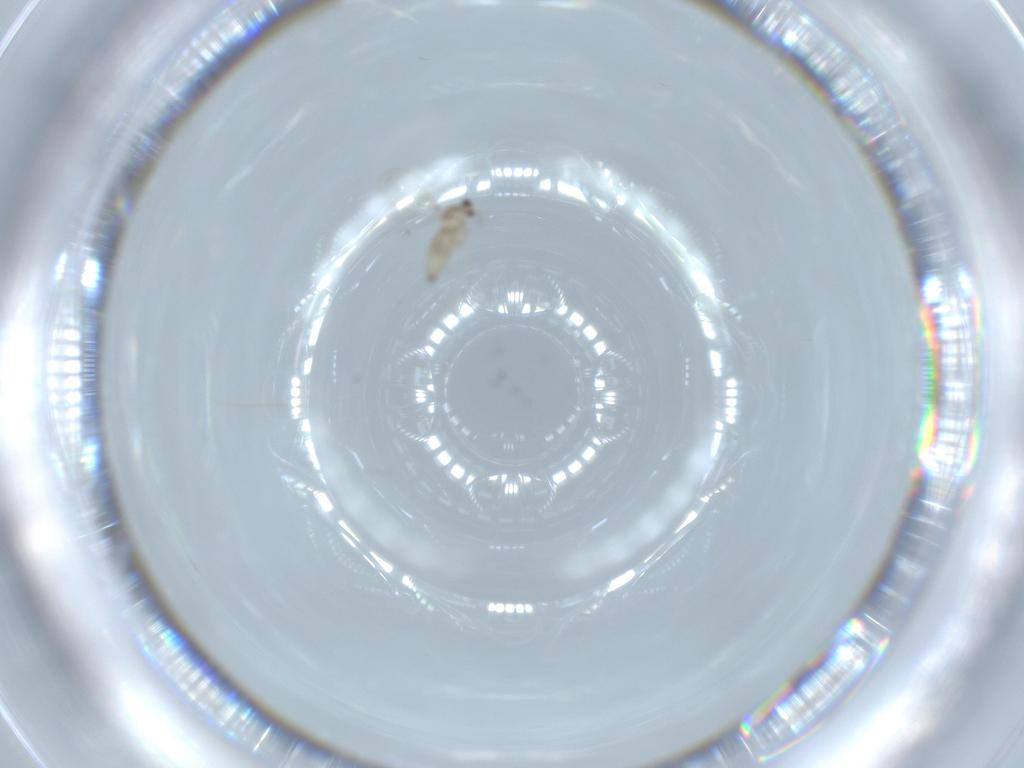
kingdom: Animalia
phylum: Arthropoda
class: Insecta
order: Diptera
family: Cecidomyiidae
